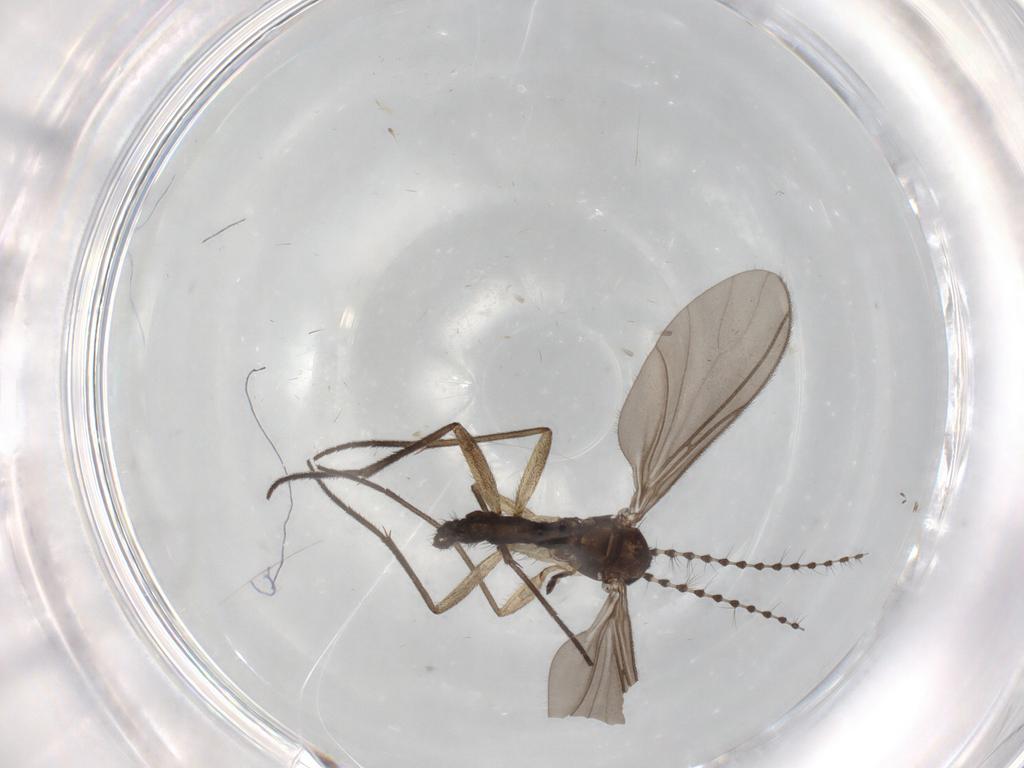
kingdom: Animalia
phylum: Arthropoda
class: Insecta
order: Diptera
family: Sciaridae
